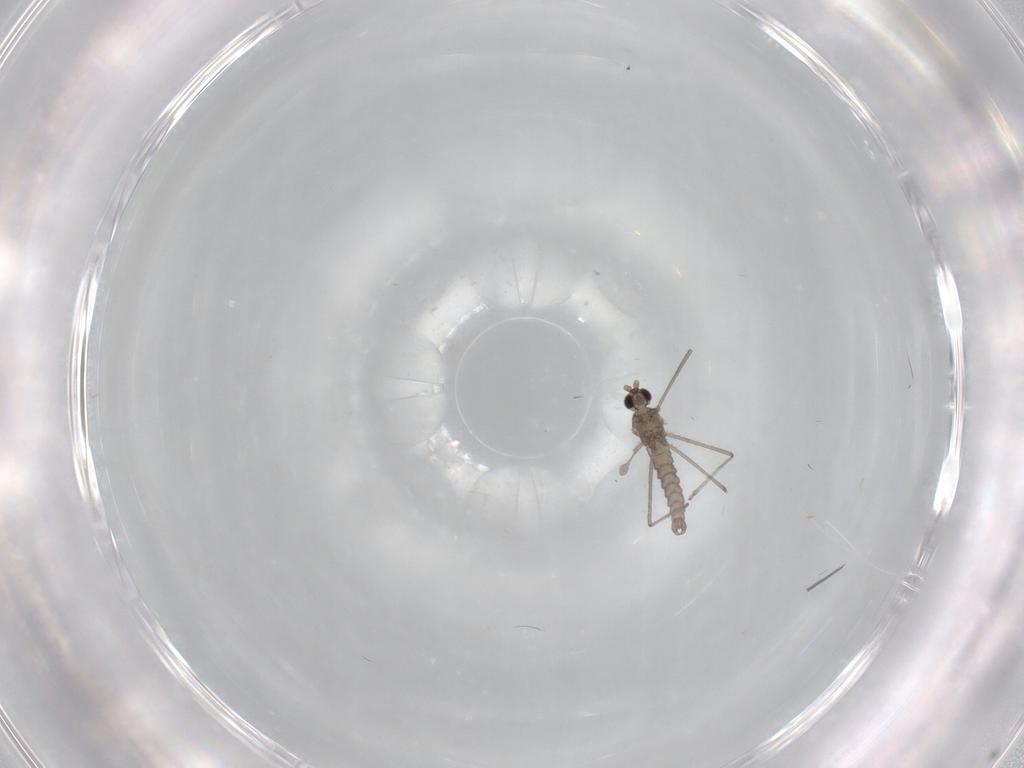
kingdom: Animalia
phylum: Arthropoda
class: Insecta
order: Diptera
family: Cecidomyiidae
